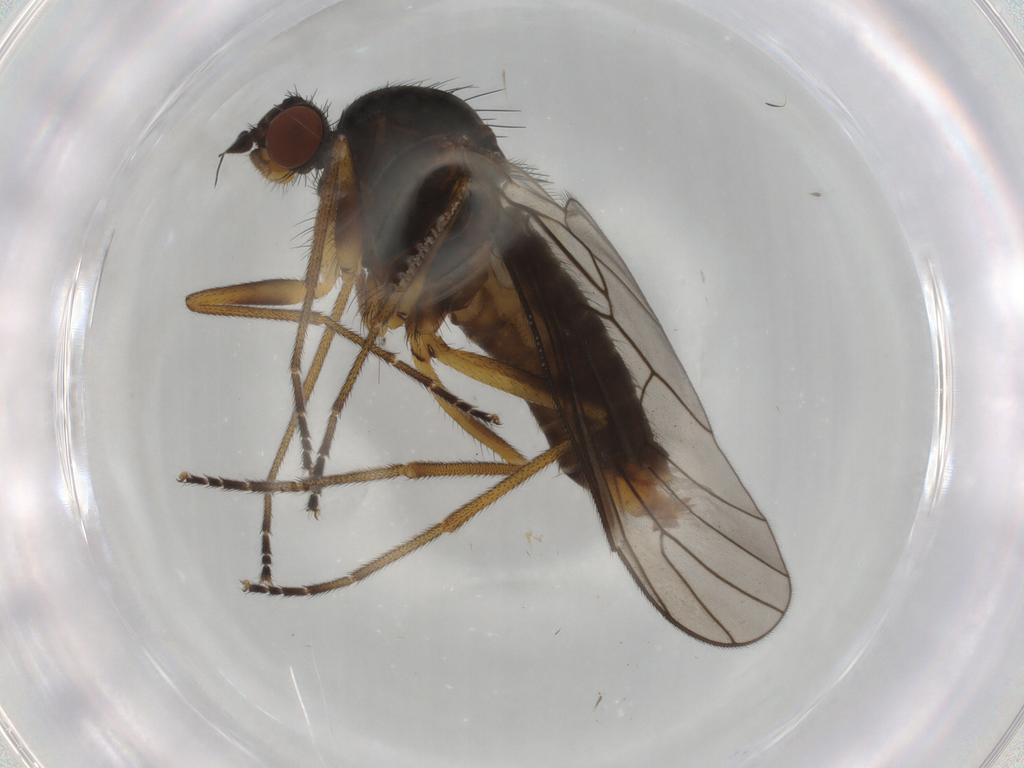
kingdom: Animalia
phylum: Arthropoda
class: Insecta
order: Diptera
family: Brachystomatidae
